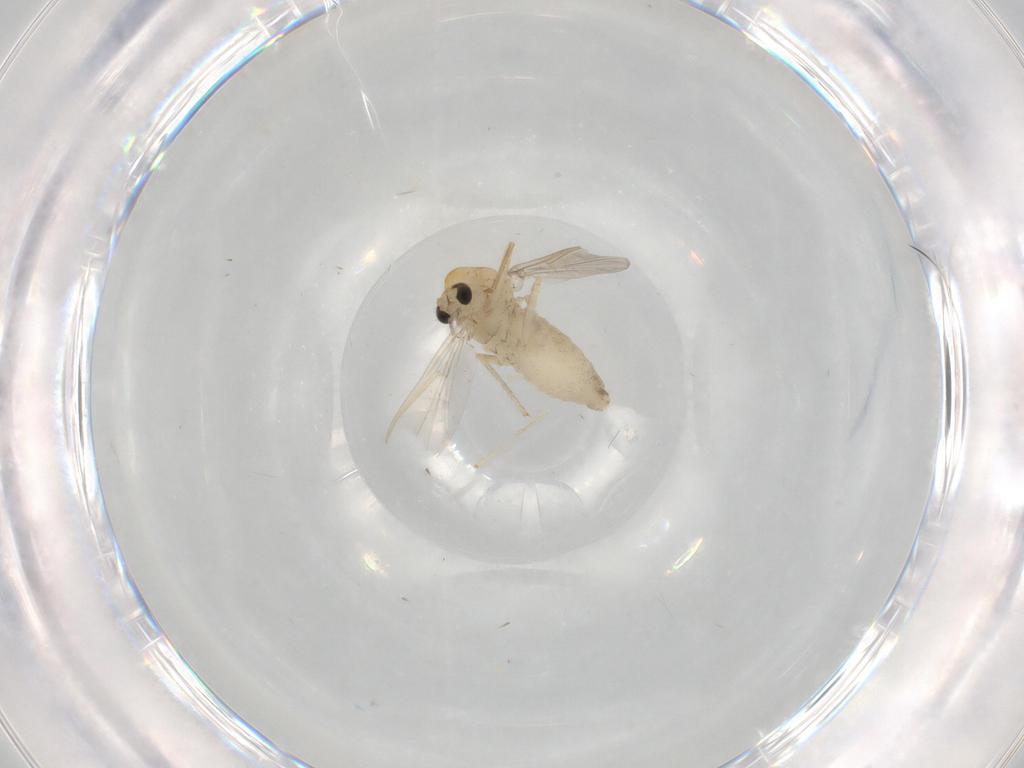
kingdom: Animalia
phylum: Arthropoda
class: Insecta
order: Diptera
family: Chironomidae
